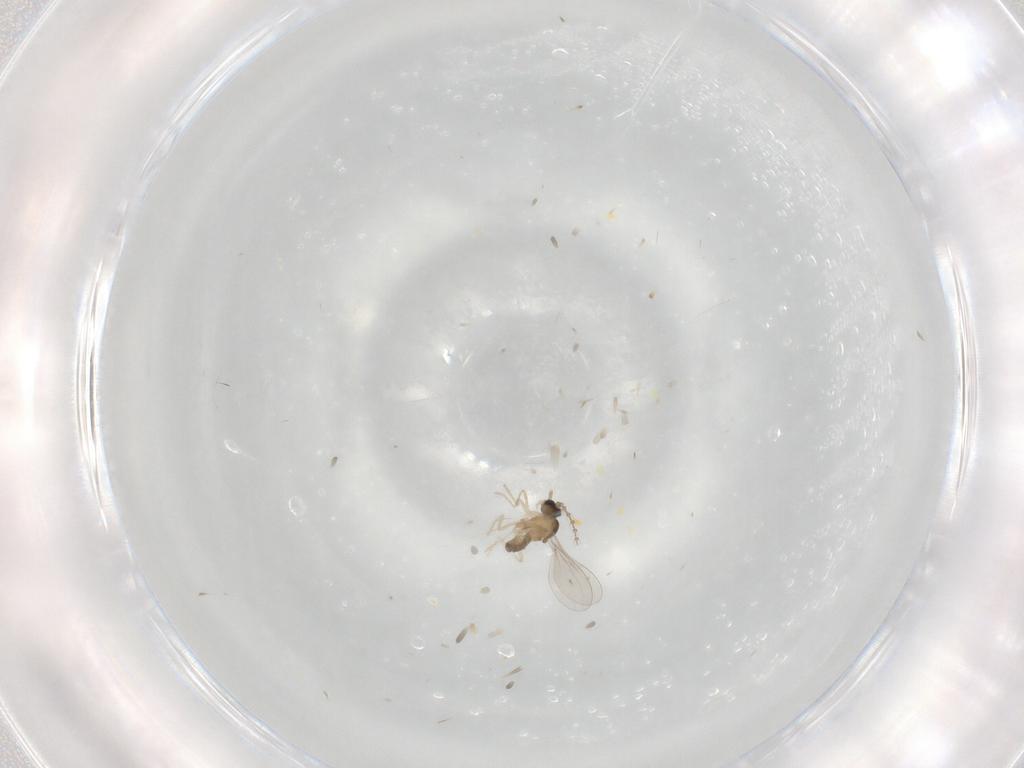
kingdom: Animalia
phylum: Arthropoda
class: Insecta
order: Diptera
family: Cecidomyiidae
